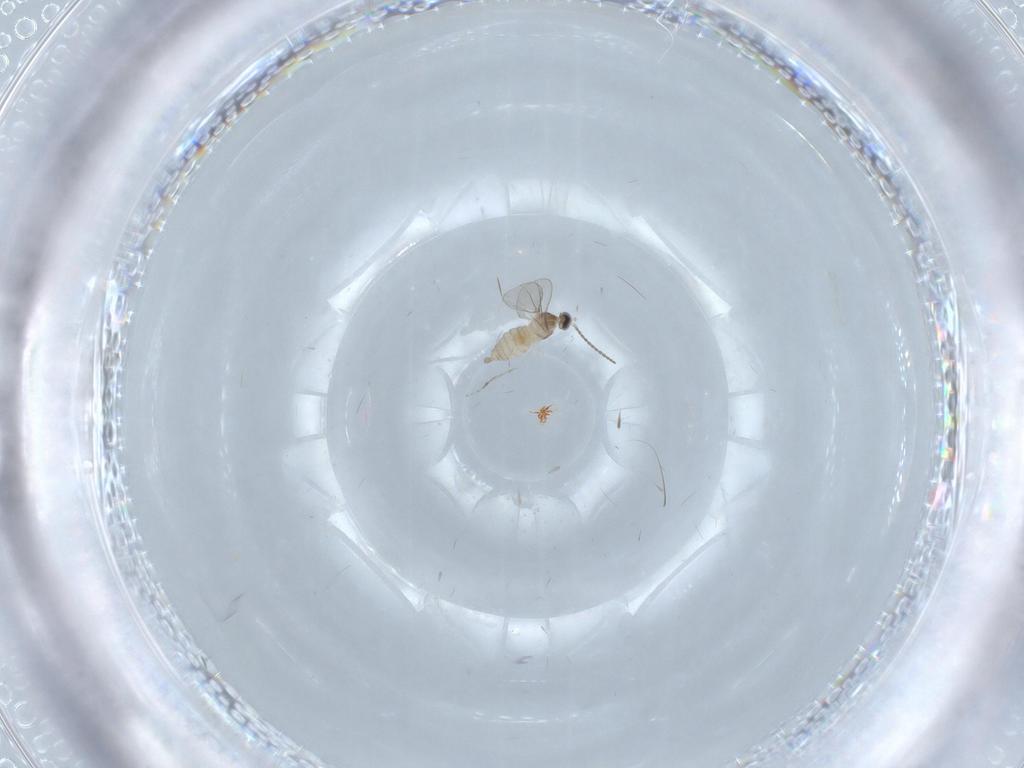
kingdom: Animalia
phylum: Arthropoda
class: Insecta
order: Diptera
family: Cecidomyiidae
